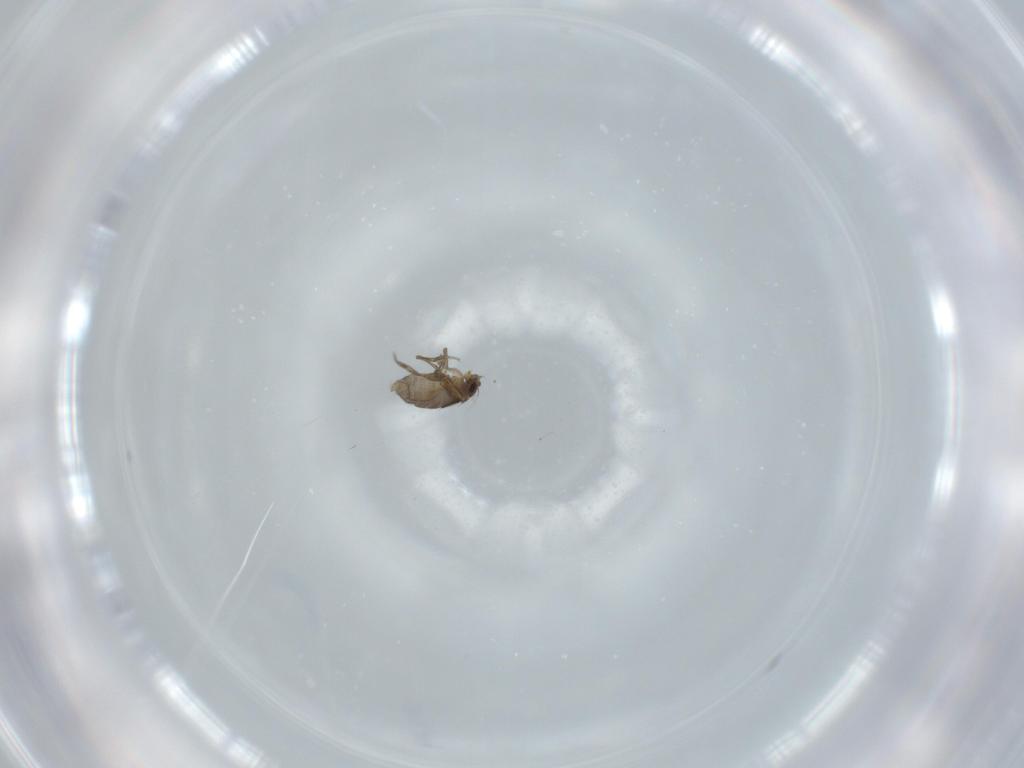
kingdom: Animalia
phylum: Arthropoda
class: Insecta
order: Diptera
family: Phoridae
